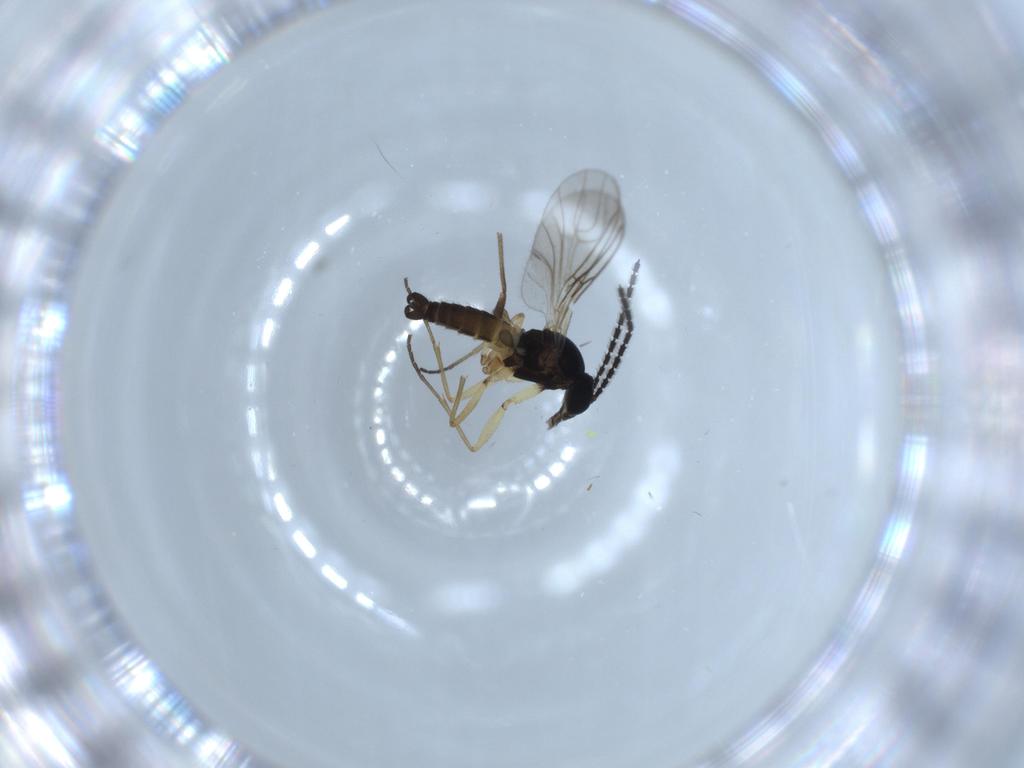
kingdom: Animalia
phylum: Arthropoda
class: Insecta
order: Diptera
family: Sciaridae
